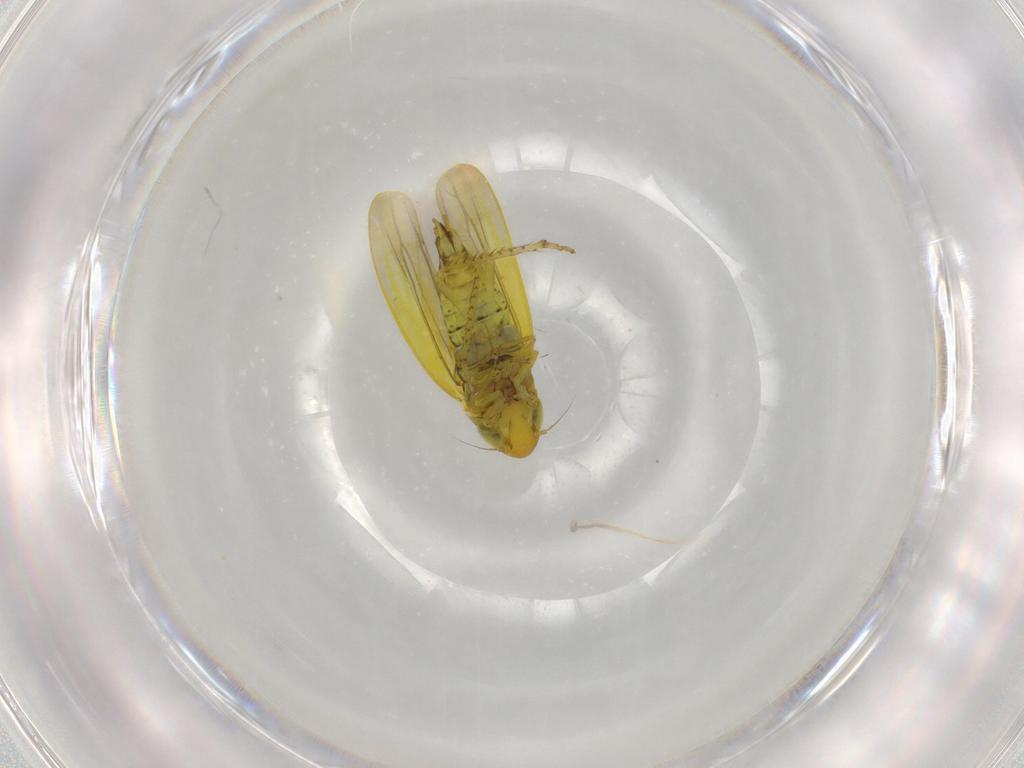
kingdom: Animalia
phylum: Arthropoda
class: Insecta
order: Hemiptera
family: Cicadellidae
